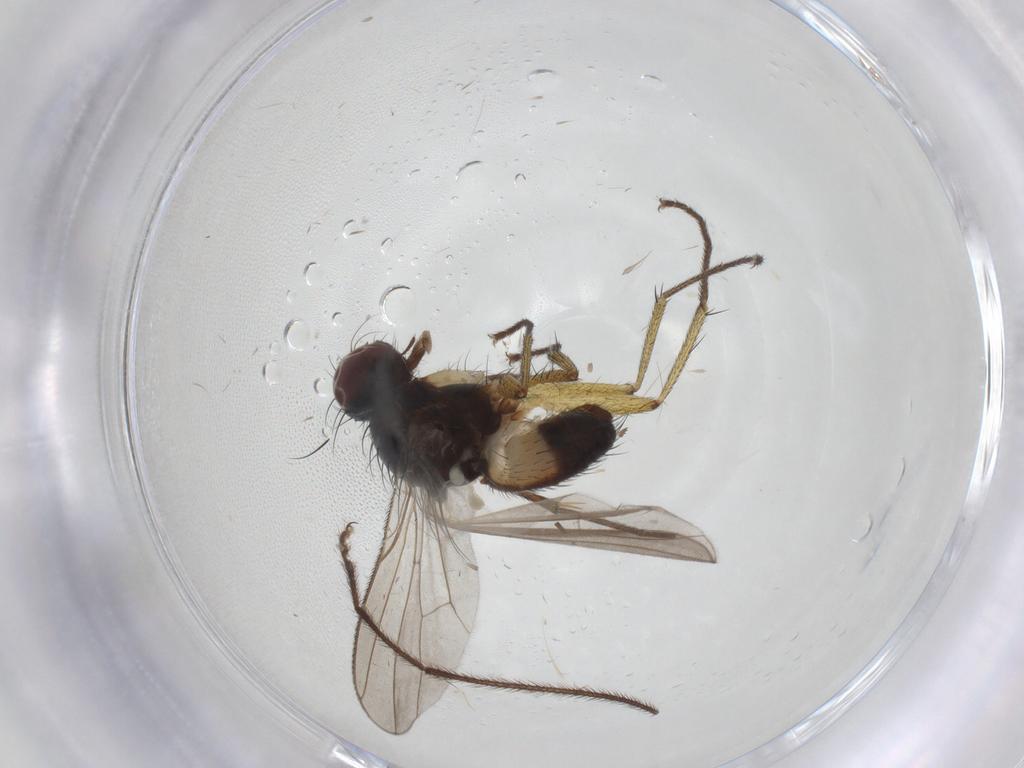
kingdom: Animalia
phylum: Arthropoda
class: Insecta
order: Diptera
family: Muscidae
